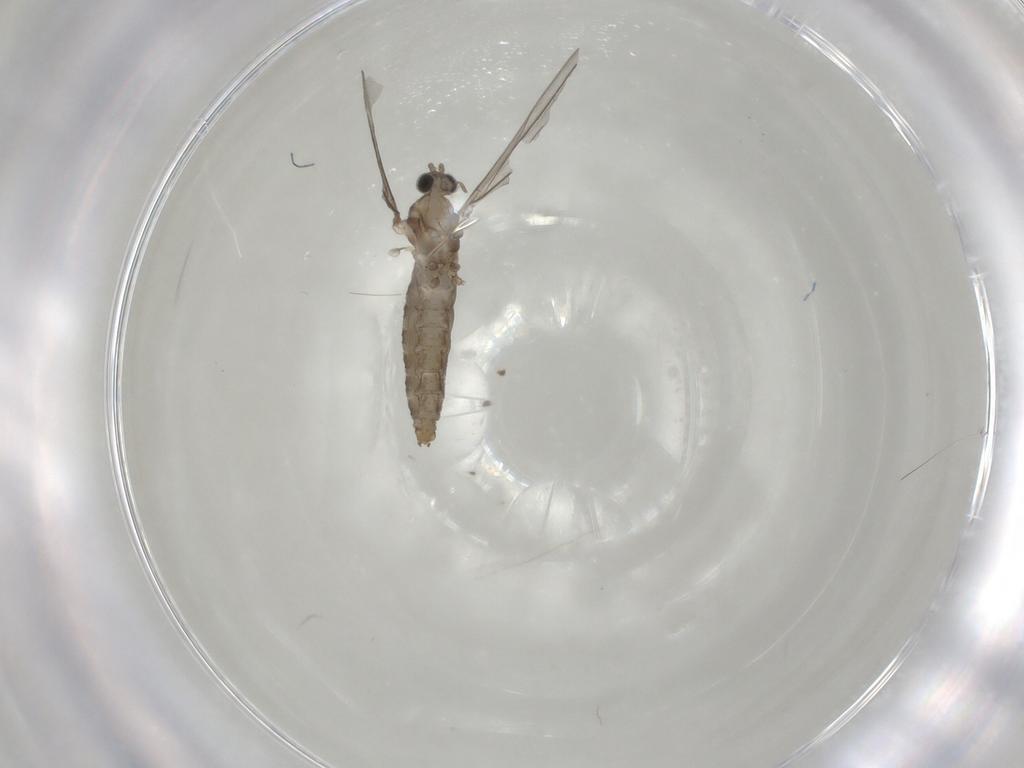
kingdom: Animalia
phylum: Arthropoda
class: Insecta
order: Diptera
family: Cecidomyiidae
